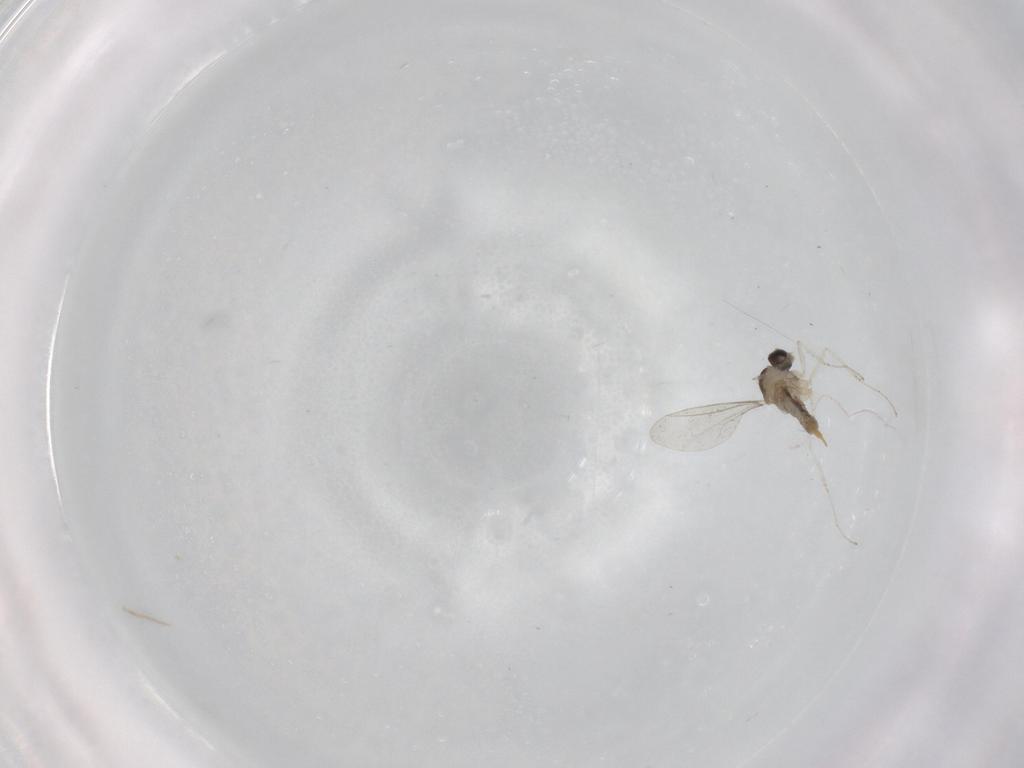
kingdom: Animalia
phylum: Arthropoda
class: Insecta
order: Diptera
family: Cecidomyiidae
